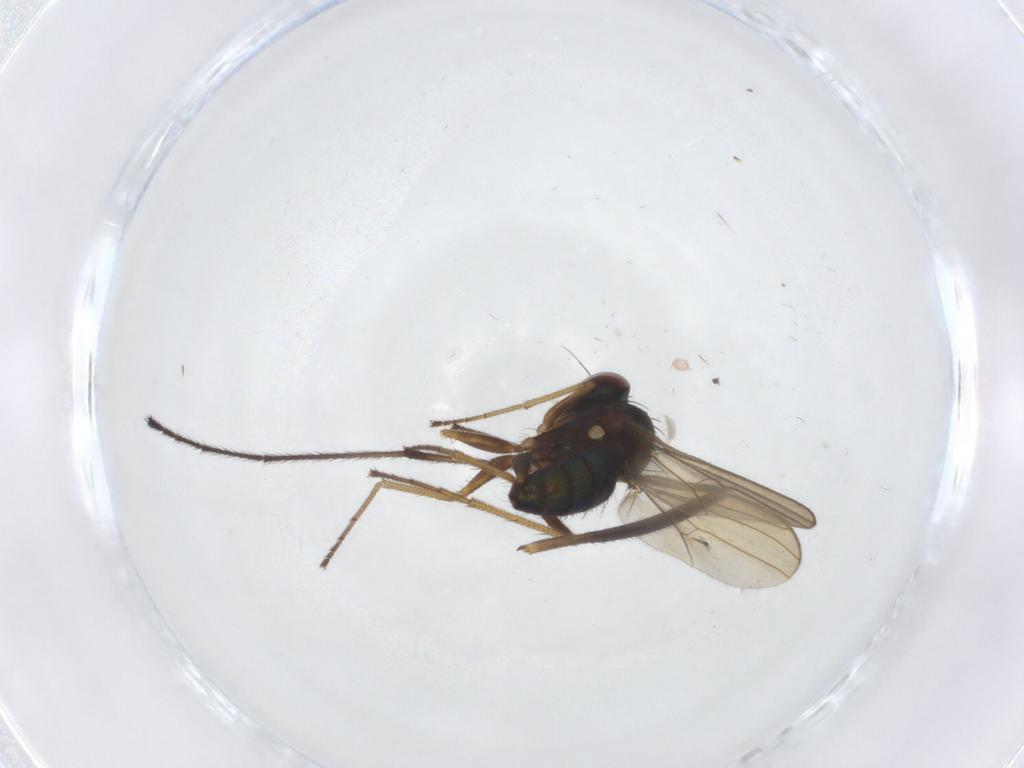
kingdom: Animalia
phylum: Arthropoda
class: Insecta
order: Diptera
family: Dolichopodidae
